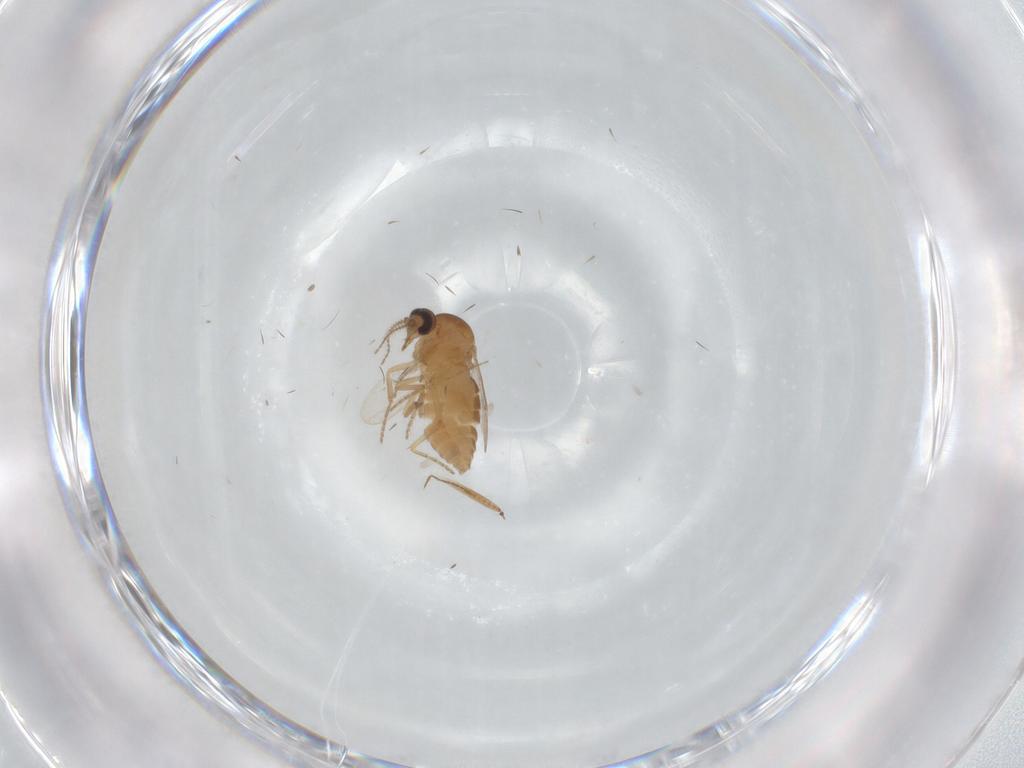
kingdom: Animalia
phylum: Arthropoda
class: Insecta
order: Diptera
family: Ceratopogonidae
